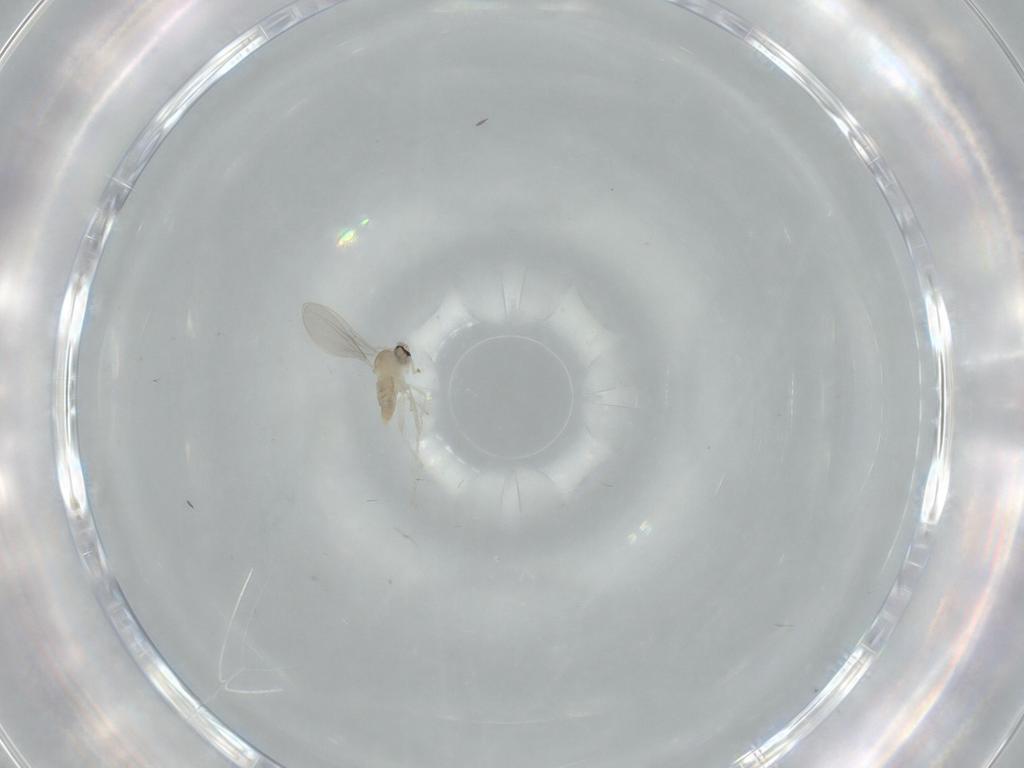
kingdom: Animalia
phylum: Arthropoda
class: Insecta
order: Diptera
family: Cecidomyiidae
